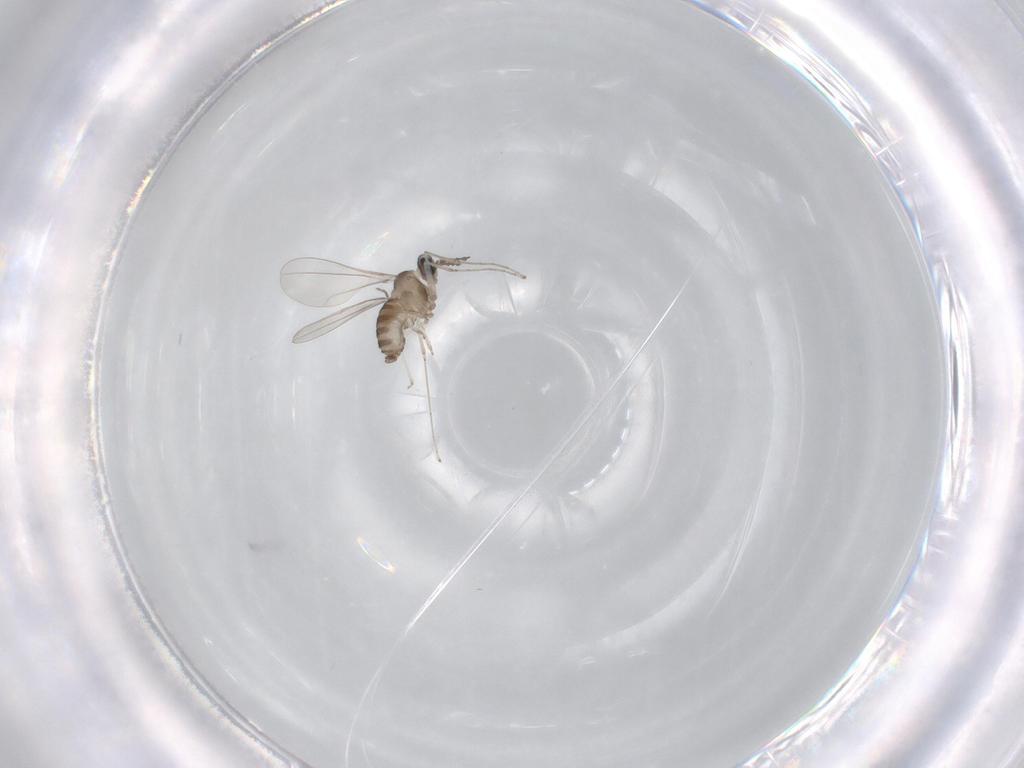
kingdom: Animalia
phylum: Arthropoda
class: Insecta
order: Diptera
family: Cecidomyiidae
